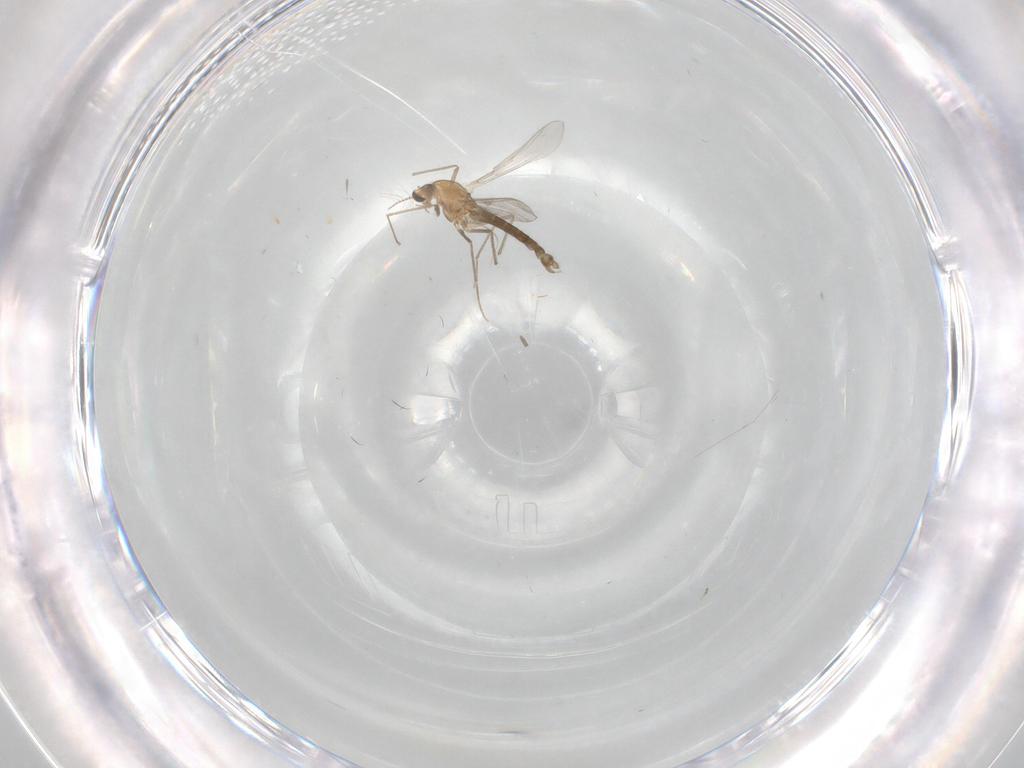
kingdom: Animalia
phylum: Arthropoda
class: Insecta
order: Diptera
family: Chironomidae
